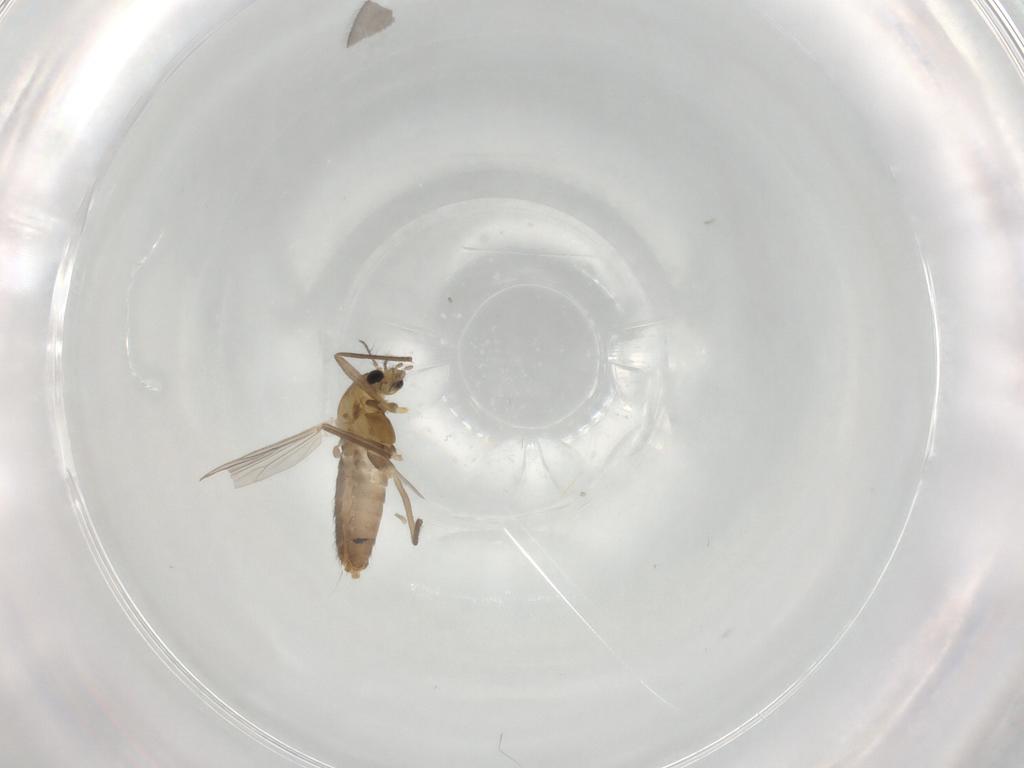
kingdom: Animalia
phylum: Arthropoda
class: Insecta
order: Diptera
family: Chironomidae
